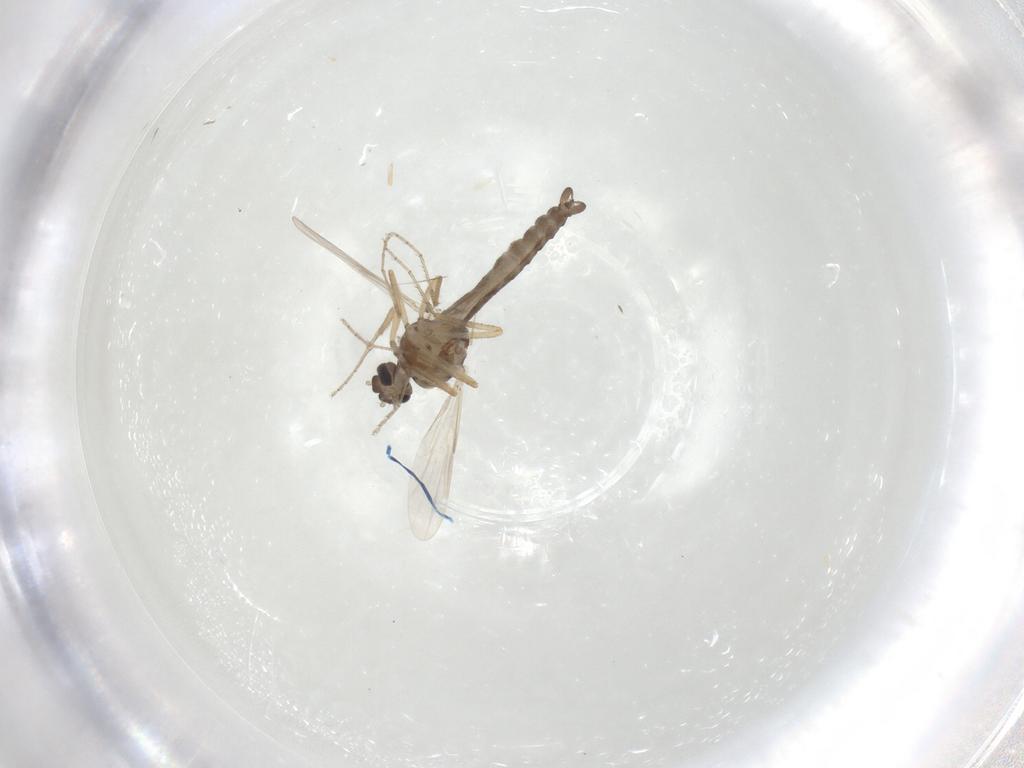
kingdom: Animalia
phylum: Arthropoda
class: Insecta
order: Diptera
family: Ceratopogonidae
